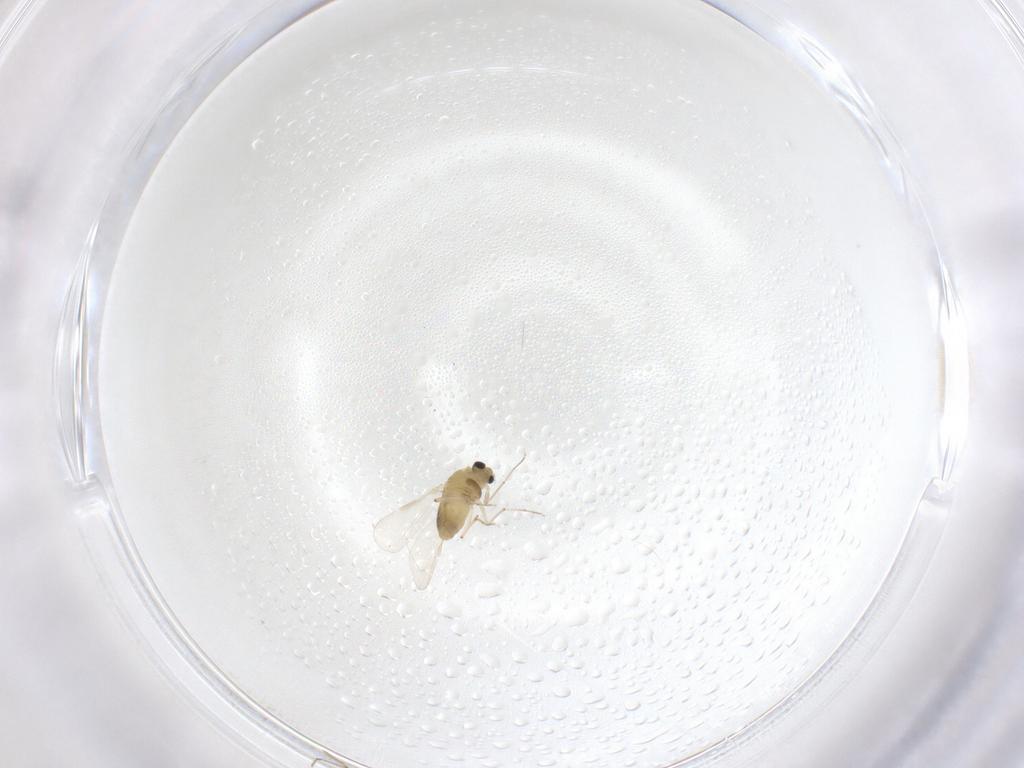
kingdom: Animalia
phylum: Arthropoda
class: Insecta
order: Diptera
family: Chironomidae
